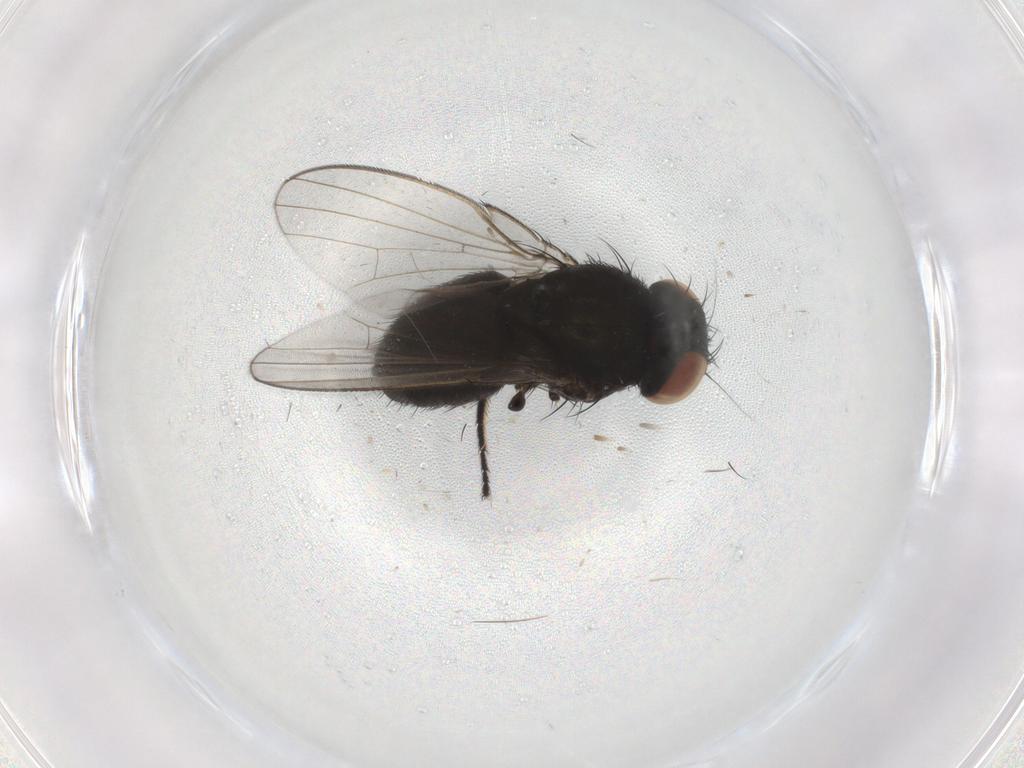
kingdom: Animalia
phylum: Arthropoda
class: Insecta
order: Diptera
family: Milichiidae
